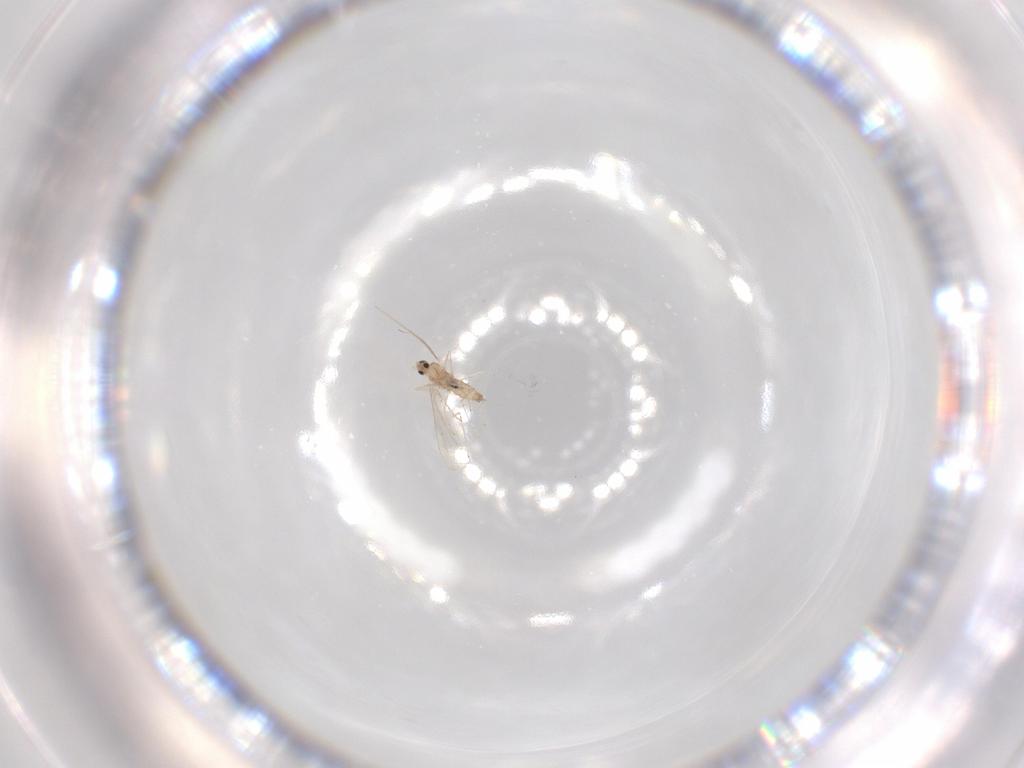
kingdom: Animalia
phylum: Arthropoda
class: Insecta
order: Diptera
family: Cecidomyiidae
